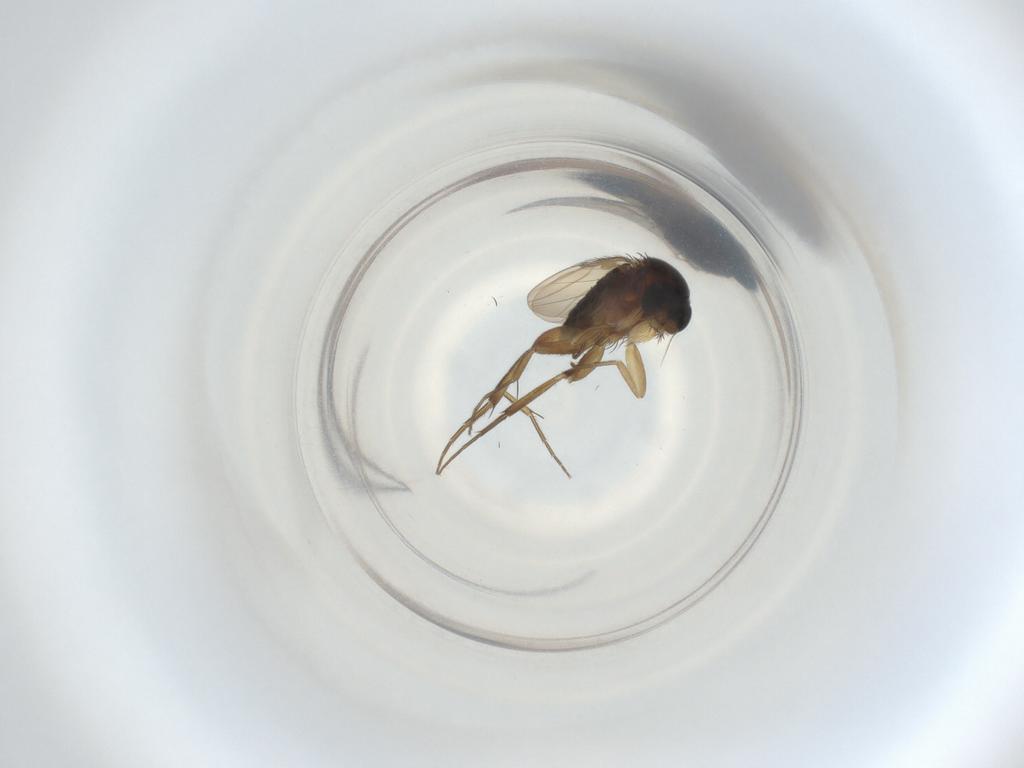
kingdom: Animalia
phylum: Arthropoda
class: Insecta
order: Diptera
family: Phoridae
